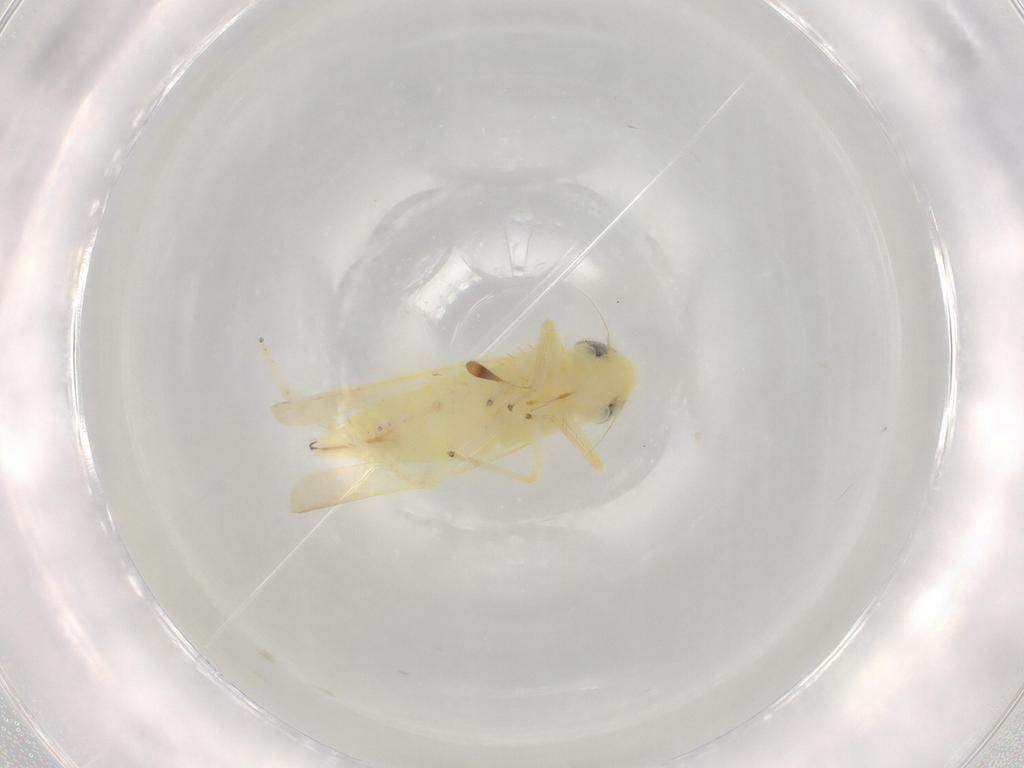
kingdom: Animalia
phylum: Arthropoda
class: Insecta
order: Hemiptera
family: Cicadellidae
